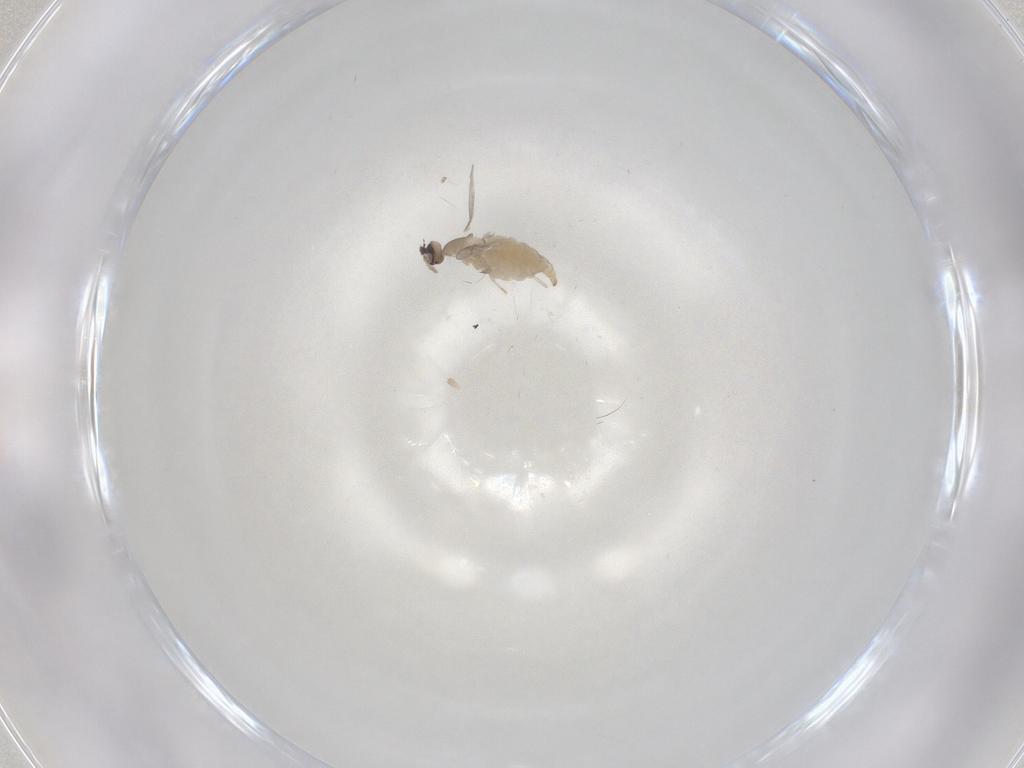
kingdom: Animalia
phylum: Arthropoda
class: Insecta
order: Diptera
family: Cecidomyiidae
